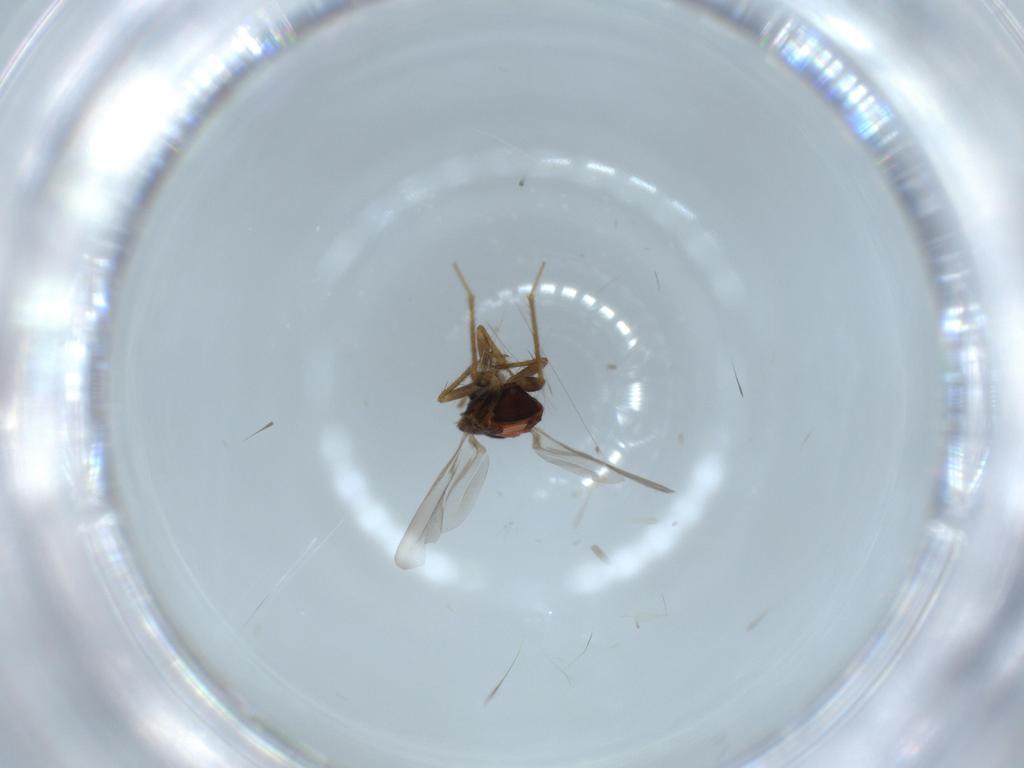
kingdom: Animalia
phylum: Arthropoda
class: Insecta
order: Hemiptera
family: Ceratocombidae
